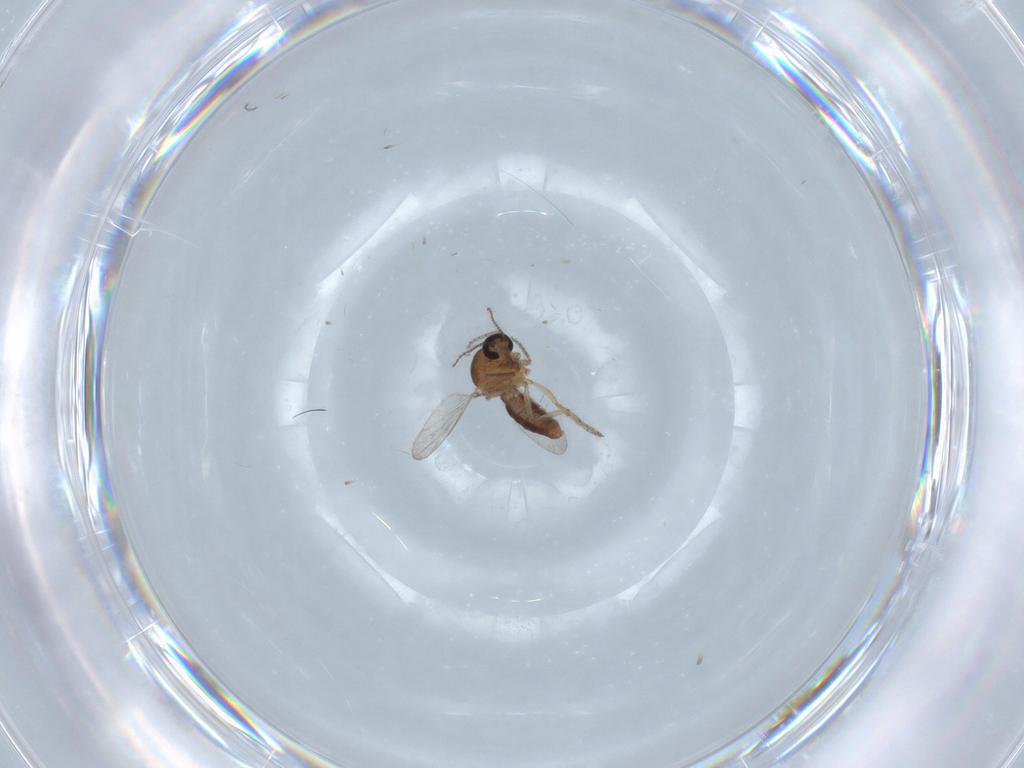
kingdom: Animalia
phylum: Arthropoda
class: Insecta
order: Diptera
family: Ceratopogonidae
